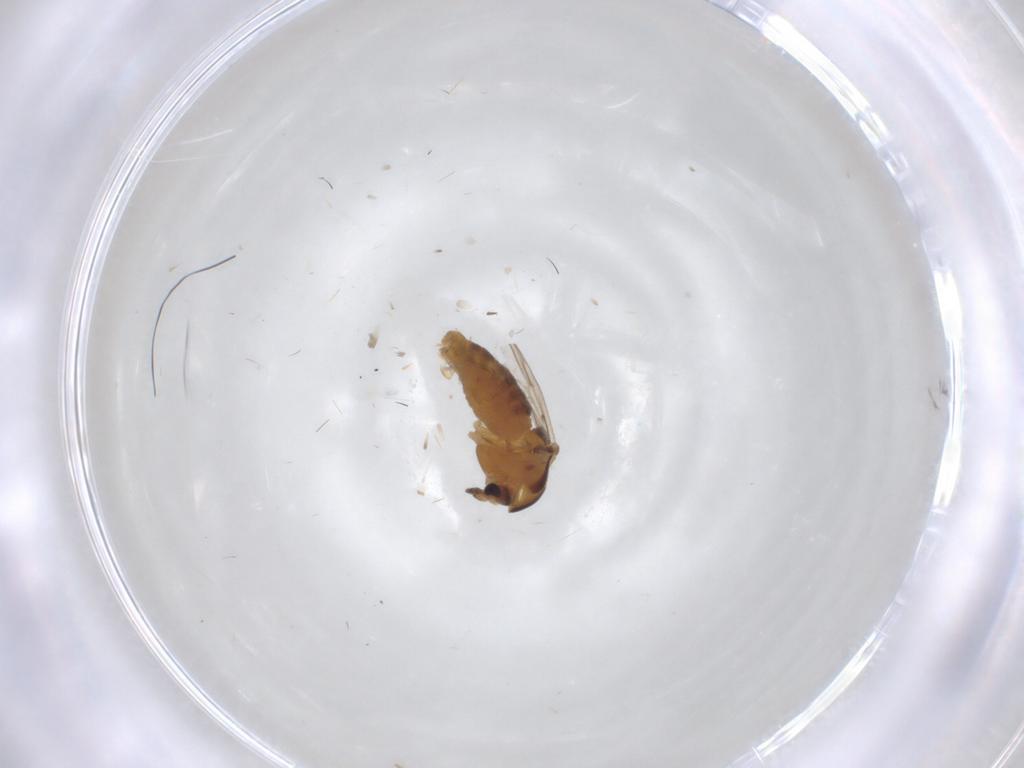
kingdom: Animalia
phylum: Arthropoda
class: Insecta
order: Diptera
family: Chironomidae
